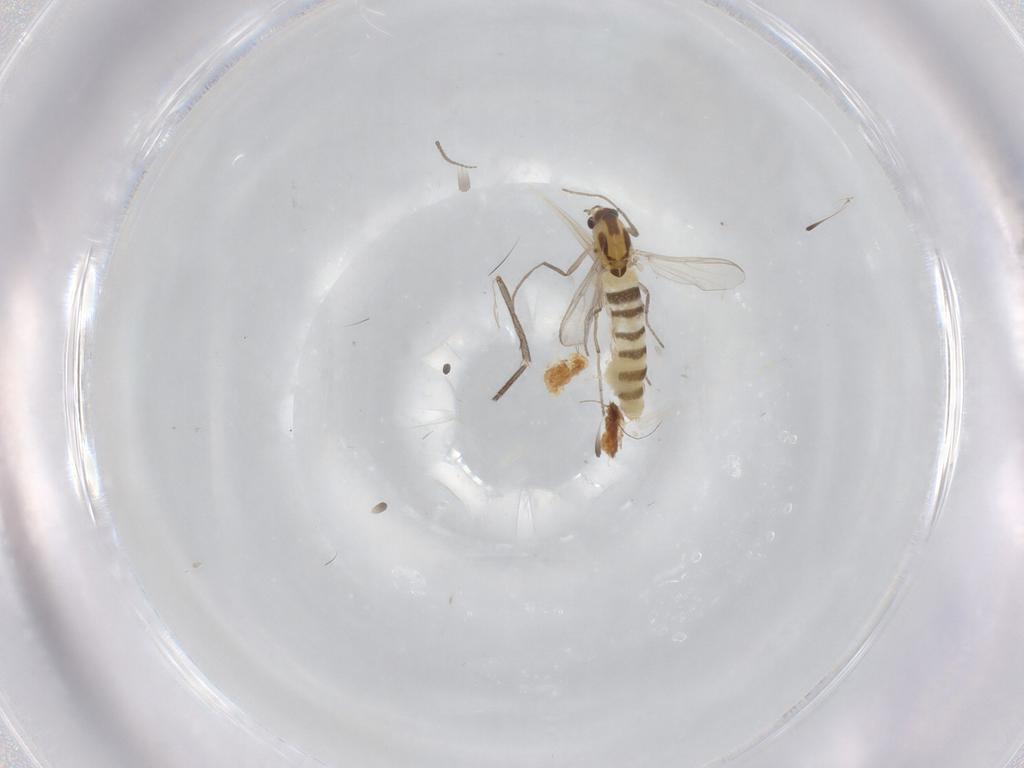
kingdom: Animalia
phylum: Arthropoda
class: Insecta
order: Diptera
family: Limoniidae
